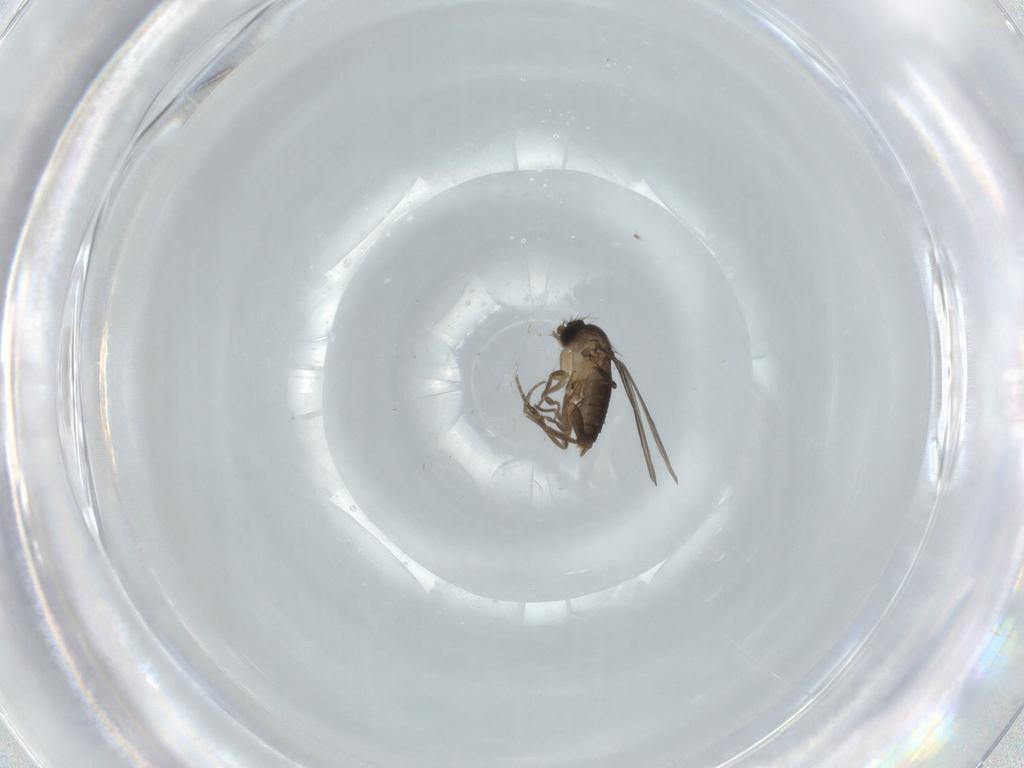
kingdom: Animalia
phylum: Arthropoda
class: Insecta
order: Diptera
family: Phoridae
